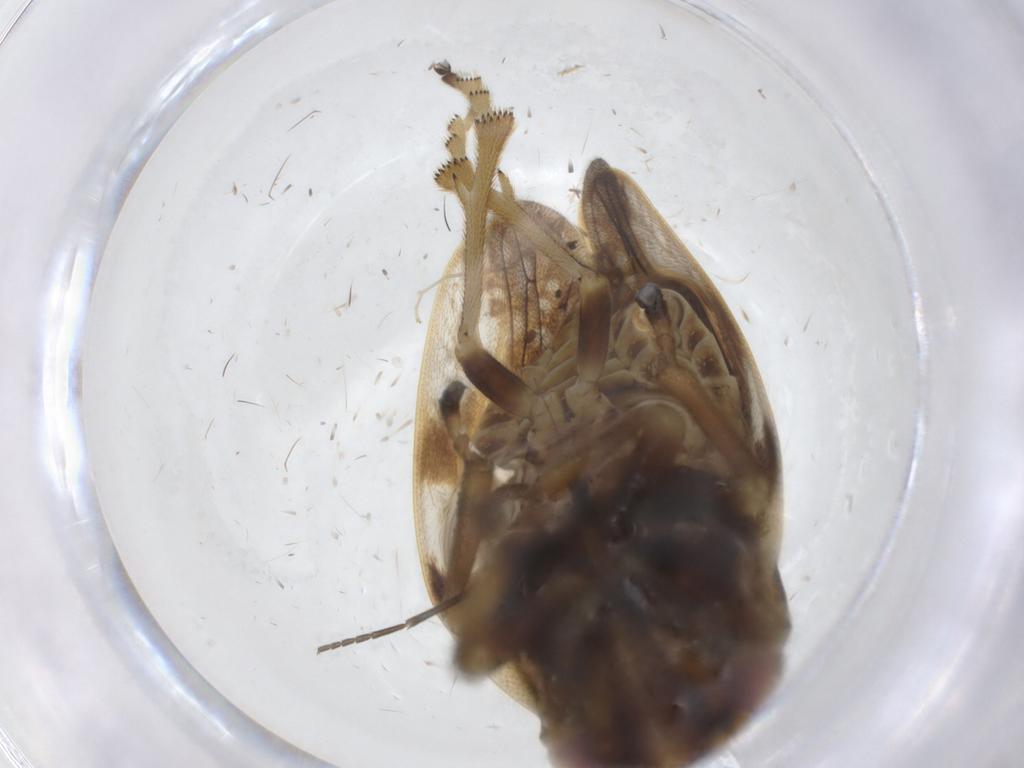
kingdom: Animalia
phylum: Arthropoda
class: Insecta
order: Hemiptera
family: Aphrophoridae
